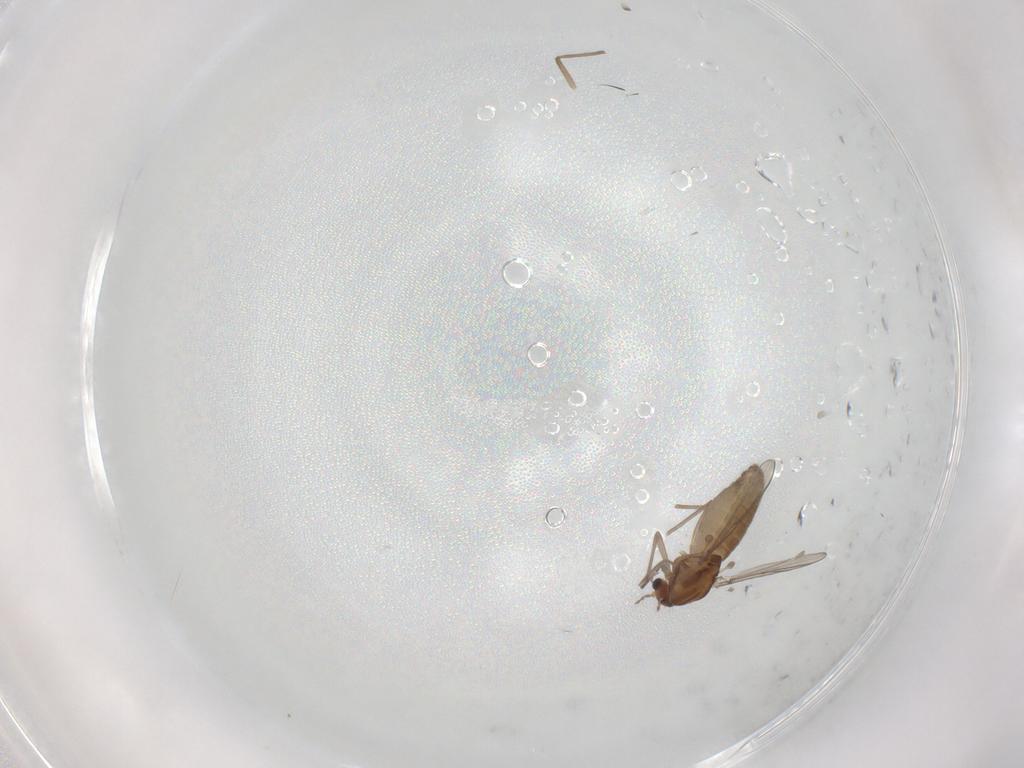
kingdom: Animalia
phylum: Arthropoda
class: Insecta
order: Diptera
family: Chironomidae
